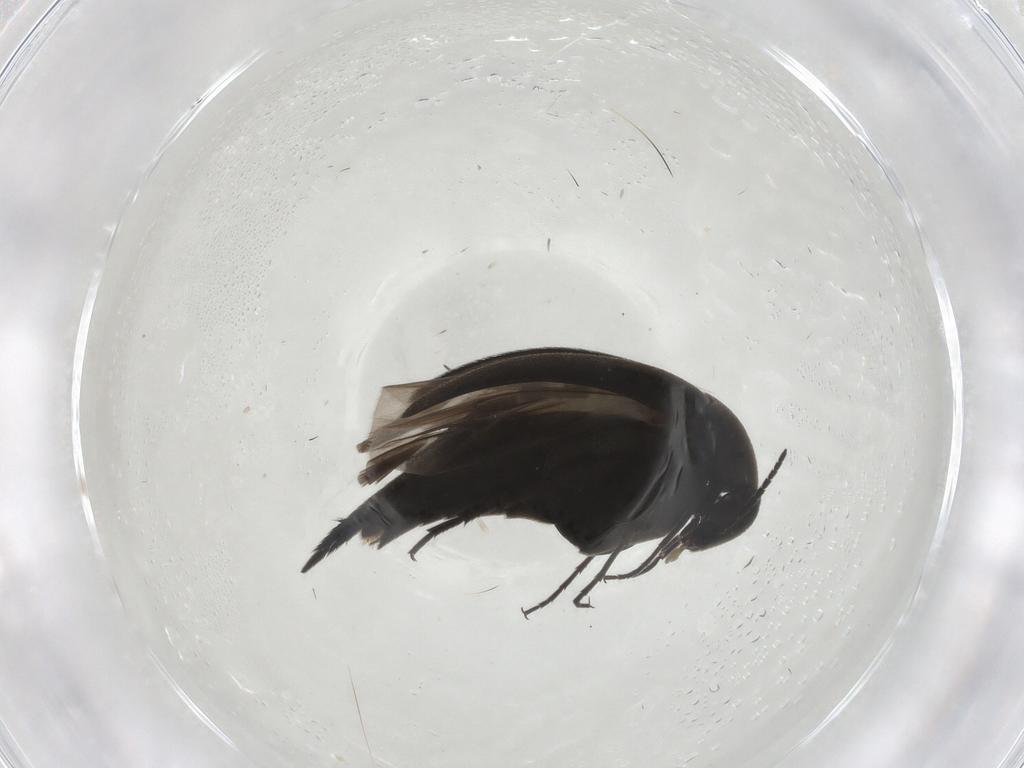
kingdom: Animalia
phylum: Arthropoda
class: Insecta
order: Coleoptera
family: Mordellidae
